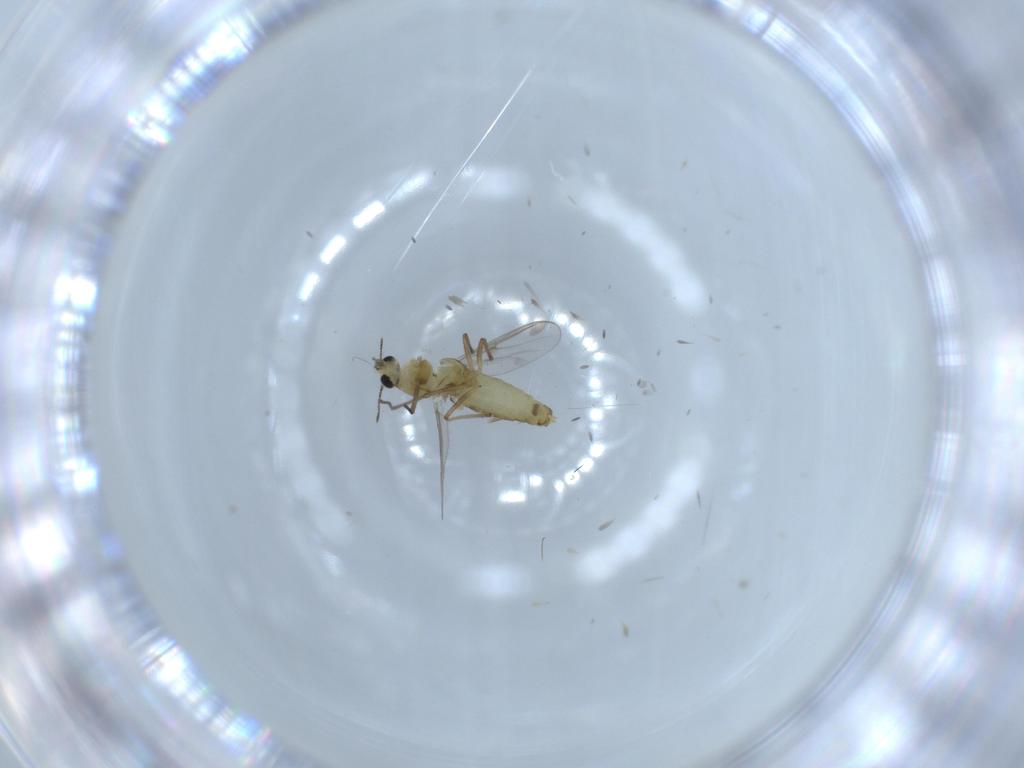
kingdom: Animalia
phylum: Arthropoda
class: Insecta
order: Diptera
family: Chironomidae
